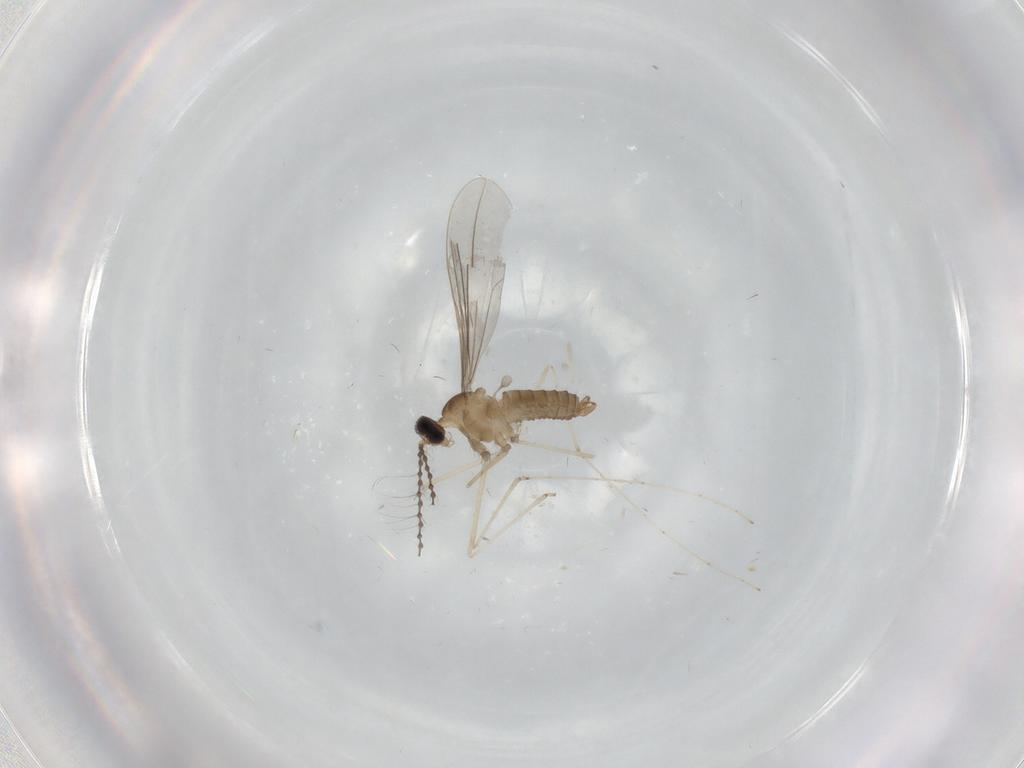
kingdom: Animalia
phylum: Arthropoda
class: Insecta
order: Diptera
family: Cecidomyiidae
